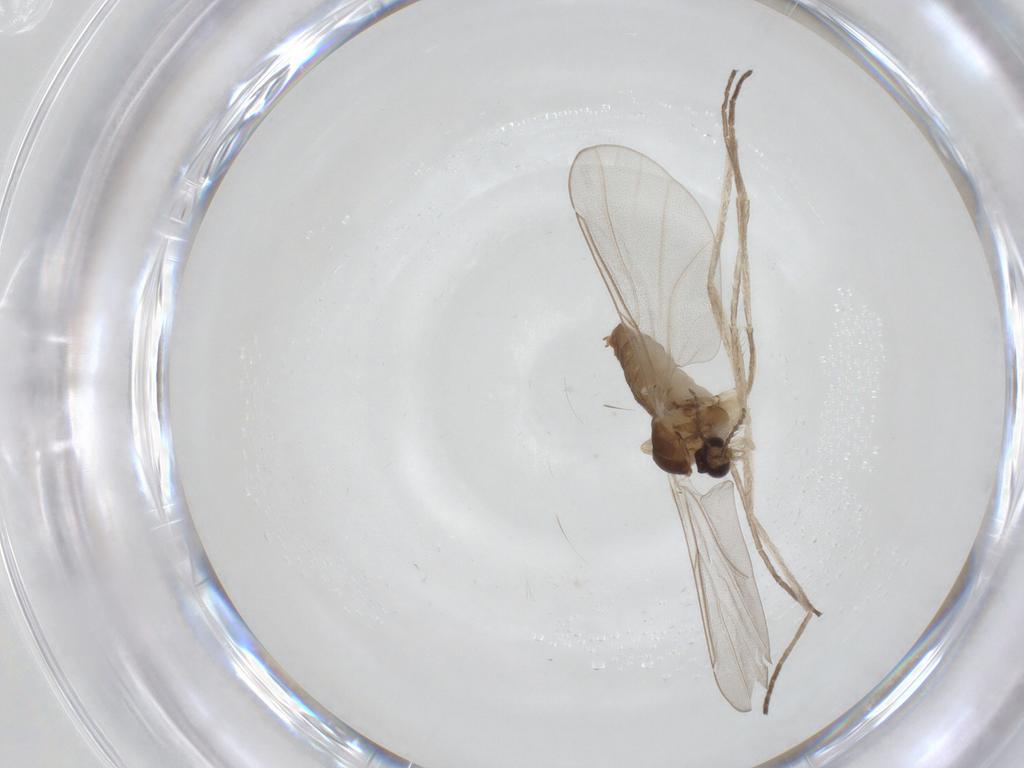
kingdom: Animalia
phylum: Arthropoda
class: Insecta
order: Diptera
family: Cecidomyiidae
